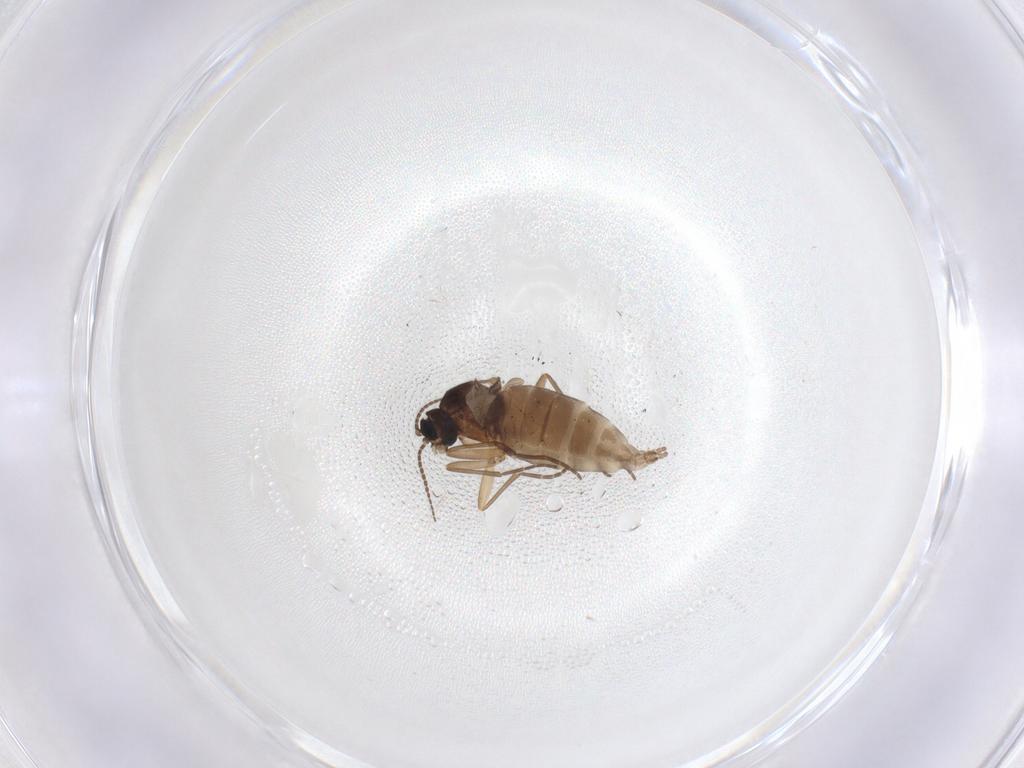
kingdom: Animalia
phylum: Arthropoda
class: Insecta
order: Diptera
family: Sciaridae
